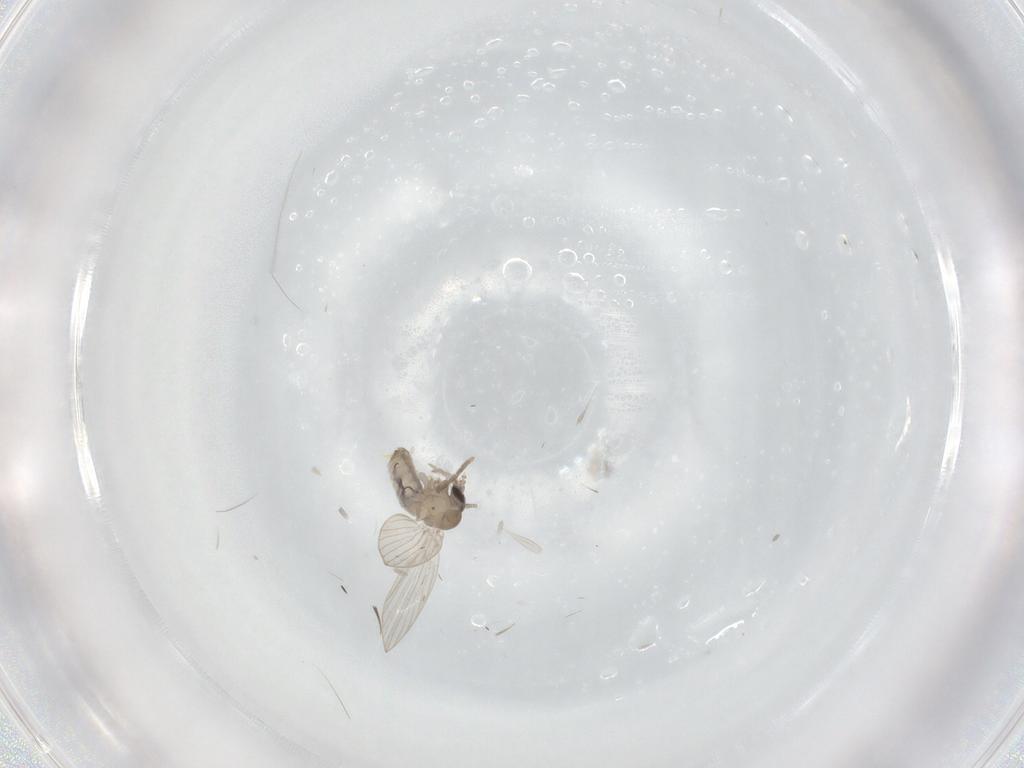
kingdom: Animalia
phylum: Arthropoda
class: Insecta
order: Diptera
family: Psychodidae
